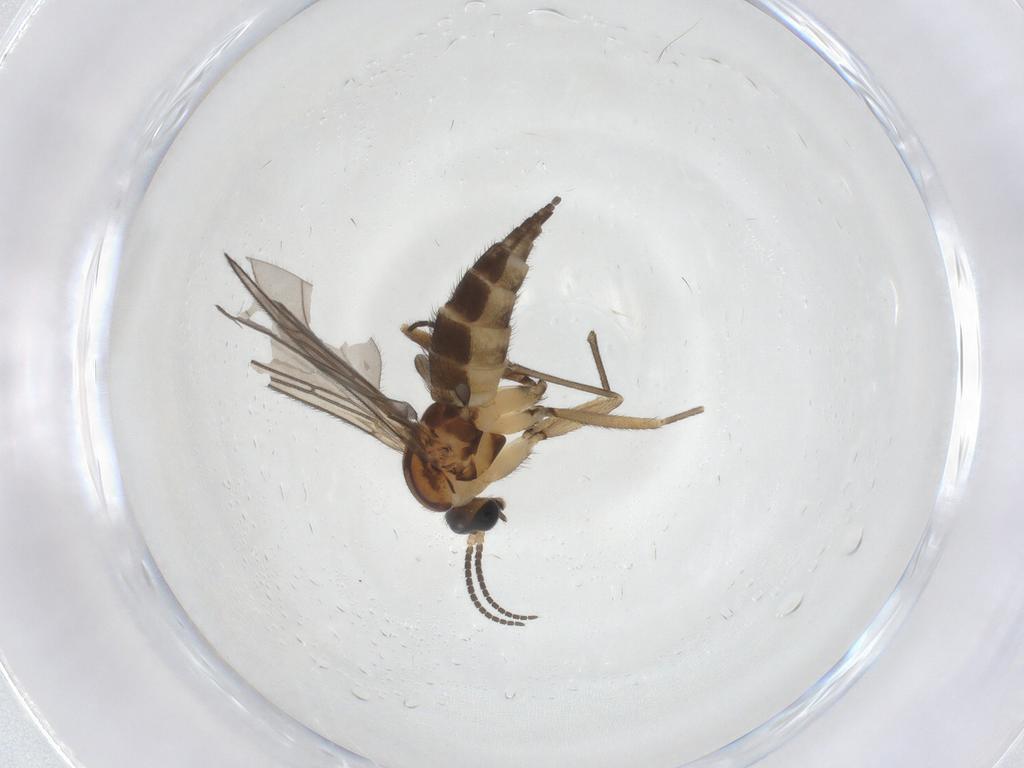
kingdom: Animalia
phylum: Arthropoda
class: Insecta
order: Diptera
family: Sciaridae
